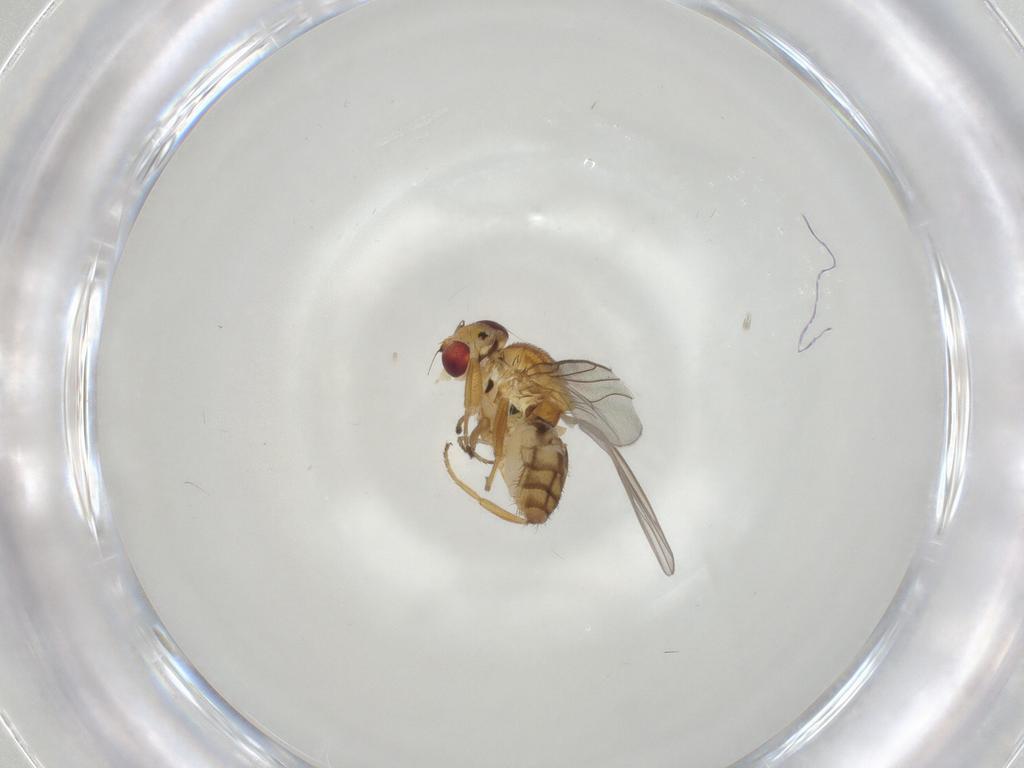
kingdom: Animalia
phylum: Arthropoda
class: Insecta
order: Diptera
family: Chloropidae
